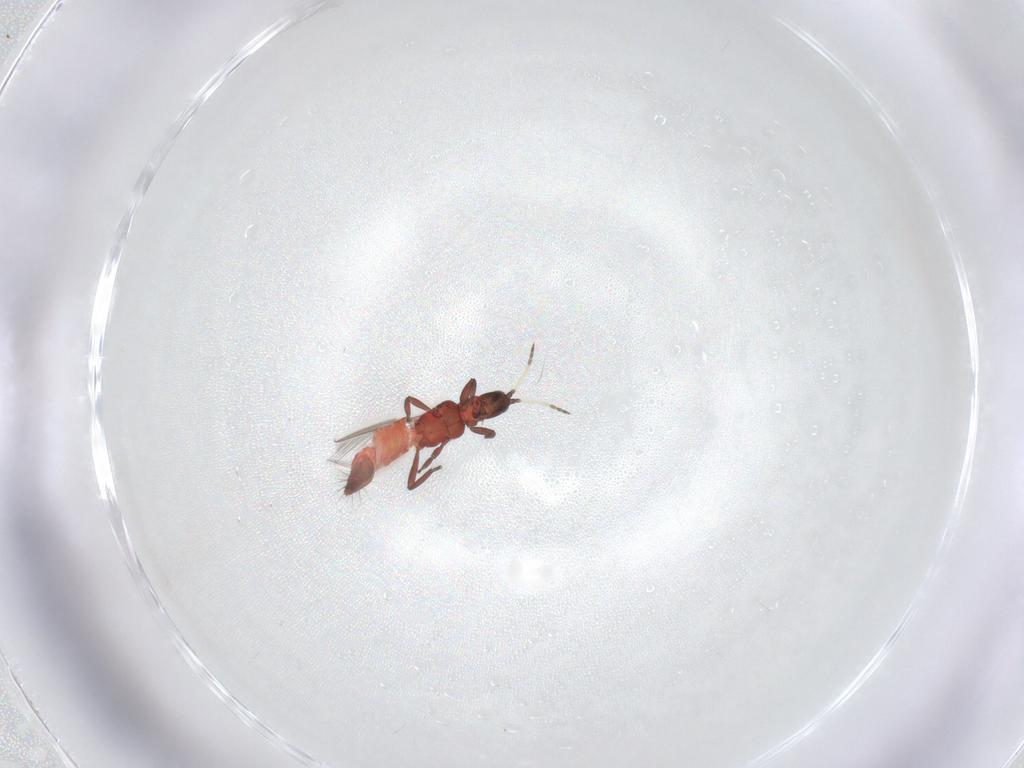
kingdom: Animalia
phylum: Arthropoda
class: Insecta
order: Thysanoptera
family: Aeolothripidae
